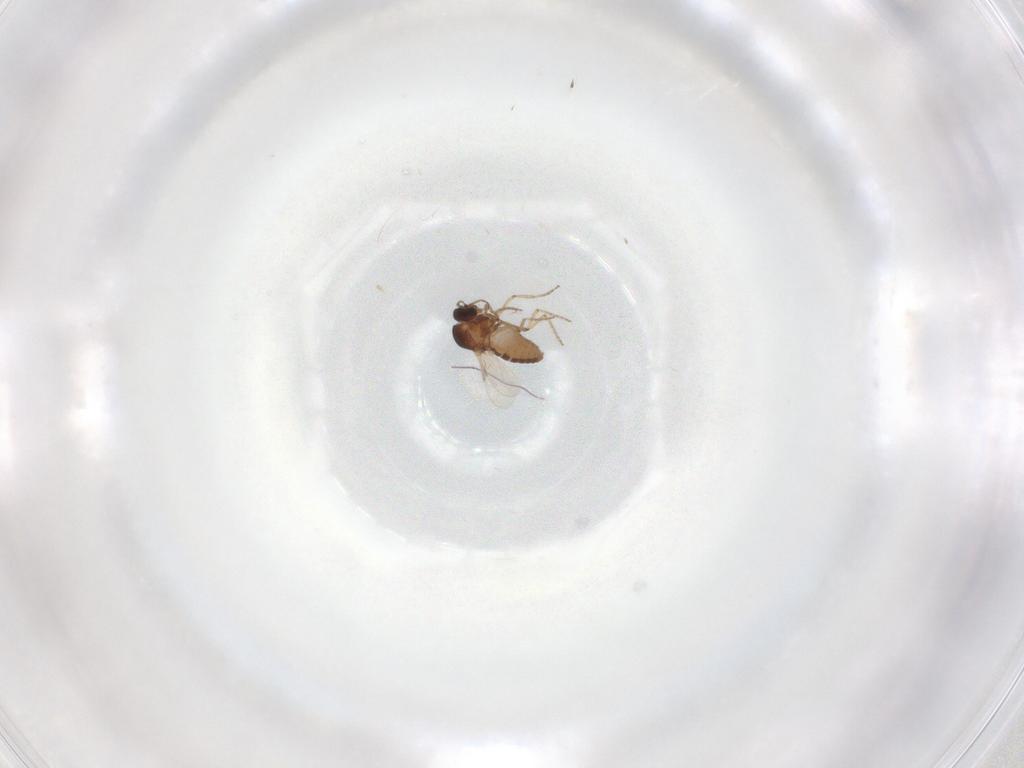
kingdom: Animalia
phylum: Arthropoda
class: Insecta
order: Diptera
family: Ceratopogonidae
